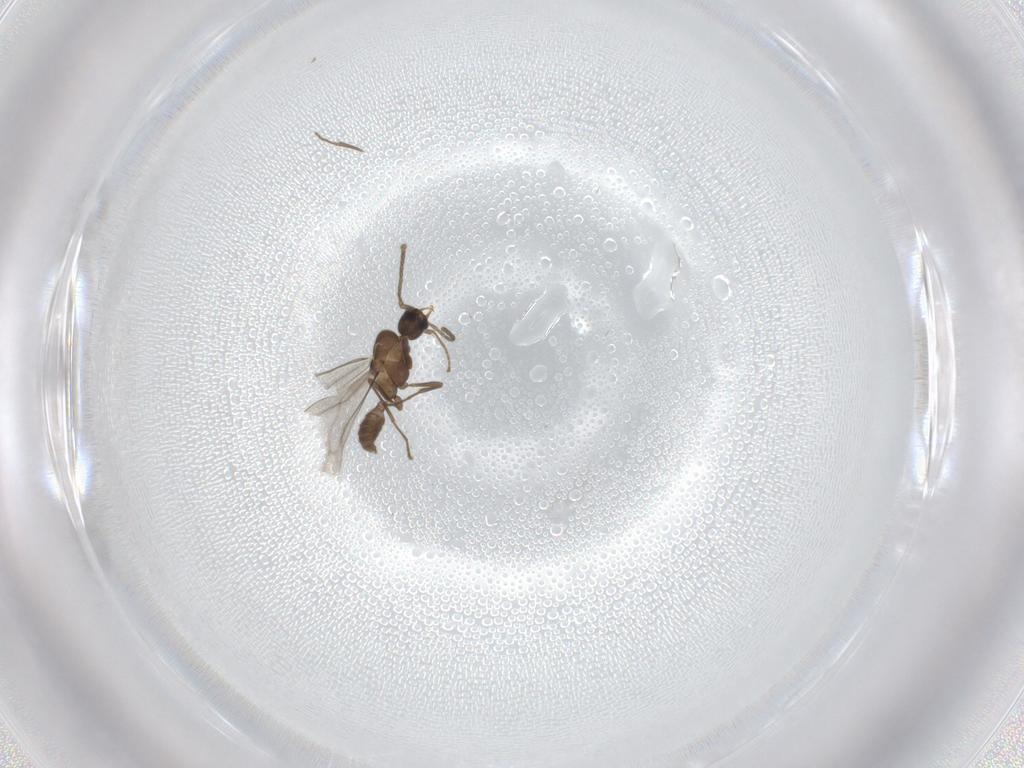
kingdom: Animalia
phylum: Arthropoda
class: Insecta
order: Hymenoptera
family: Formicidae
